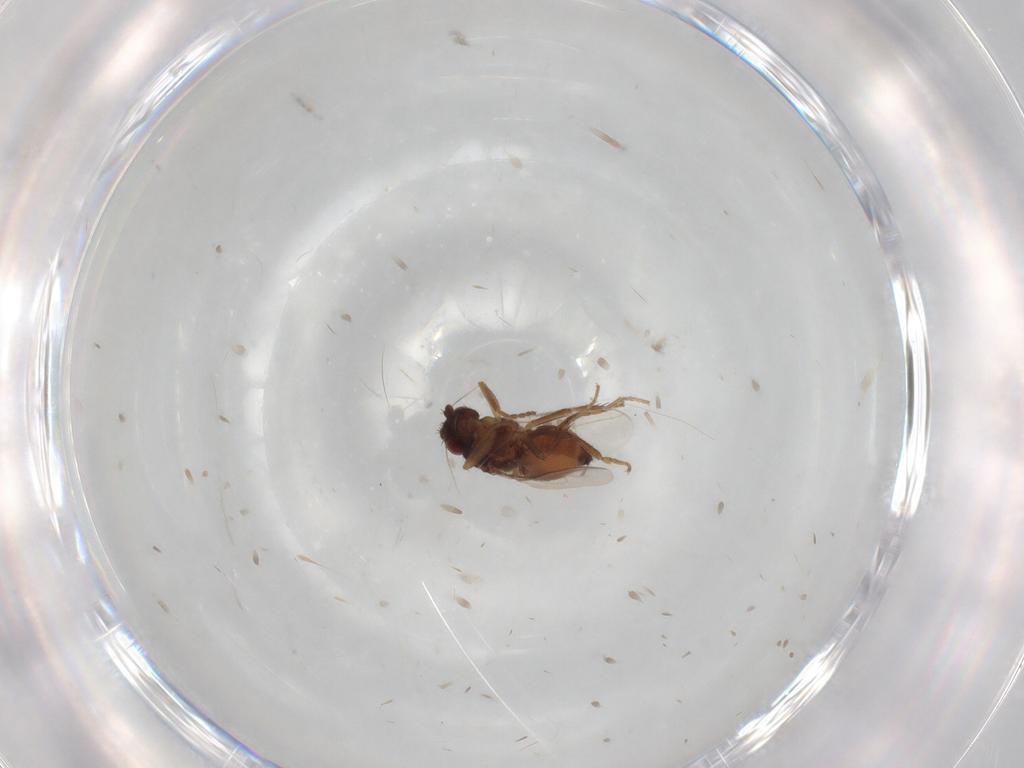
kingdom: Animalia
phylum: Arthropoda
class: Insecta
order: Diptera
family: Sphaeroceridae
